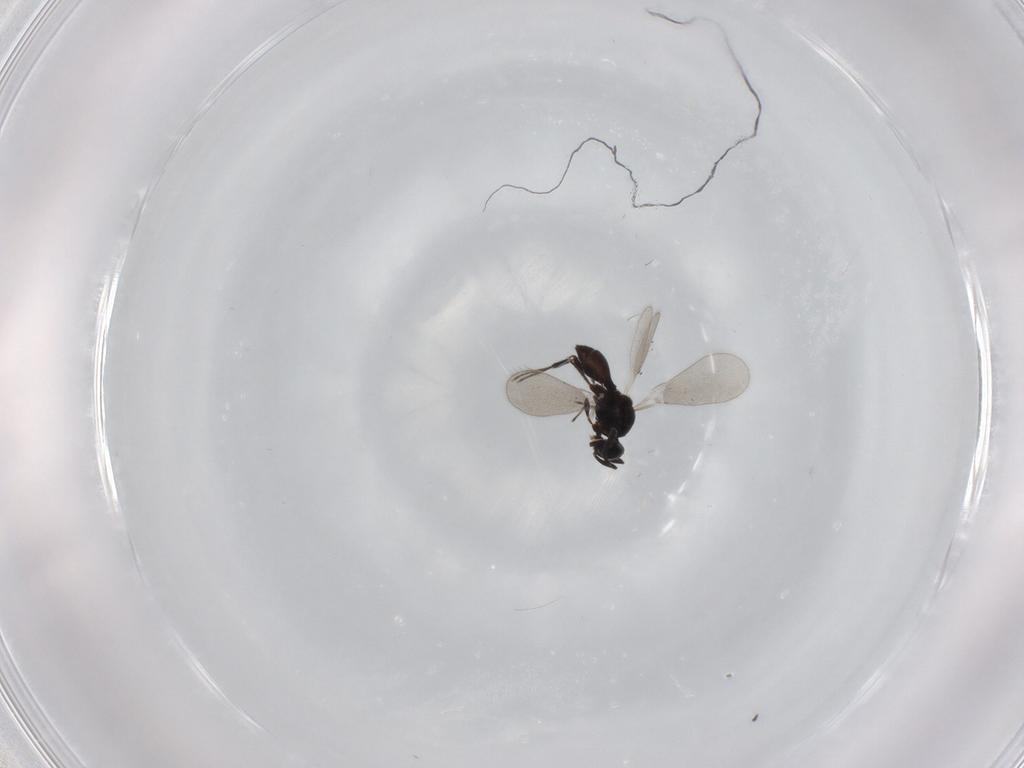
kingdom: Animalia
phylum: Arthropoda
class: Insecta
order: Hymenoptera
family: Platygastridae
